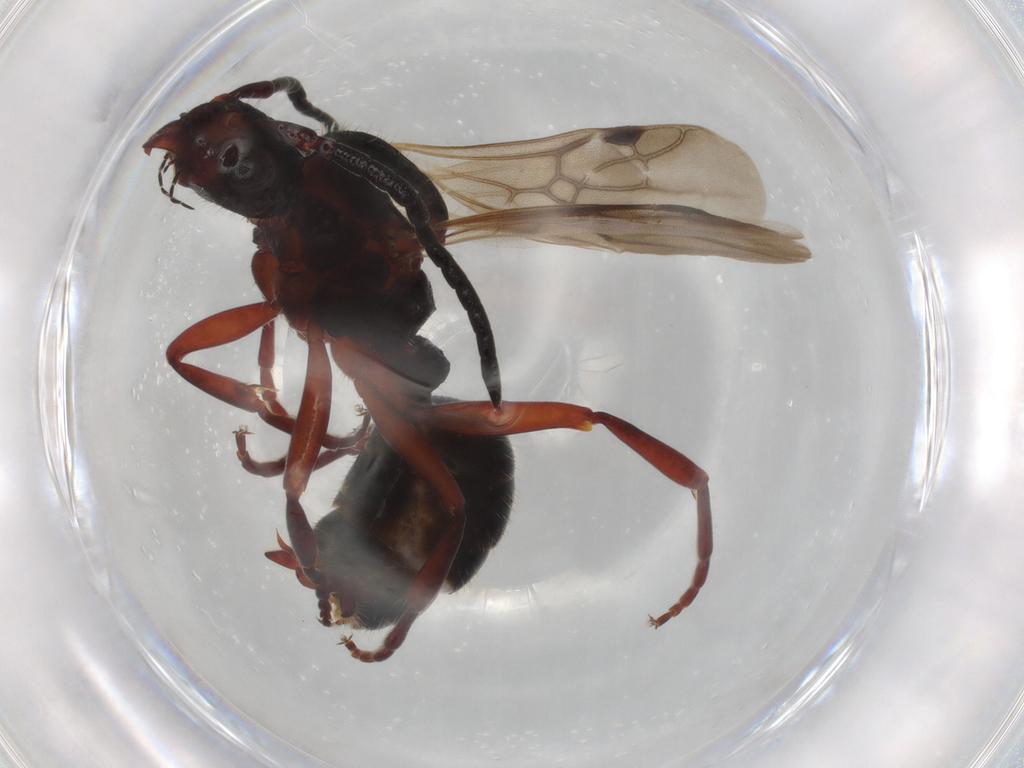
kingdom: Animalia
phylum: Arthropoda
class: Insecta
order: Hymenoptera
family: Formicidae
